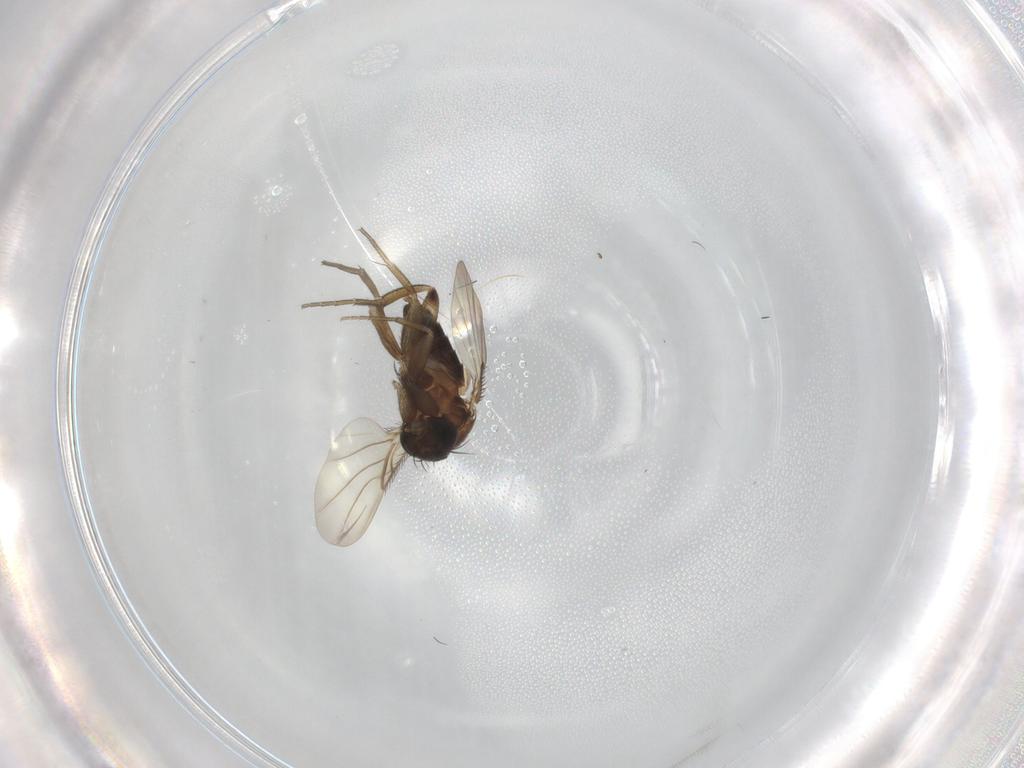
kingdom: Animalia
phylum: Arthropoda
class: Insecta
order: Diptera
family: Phoridae
